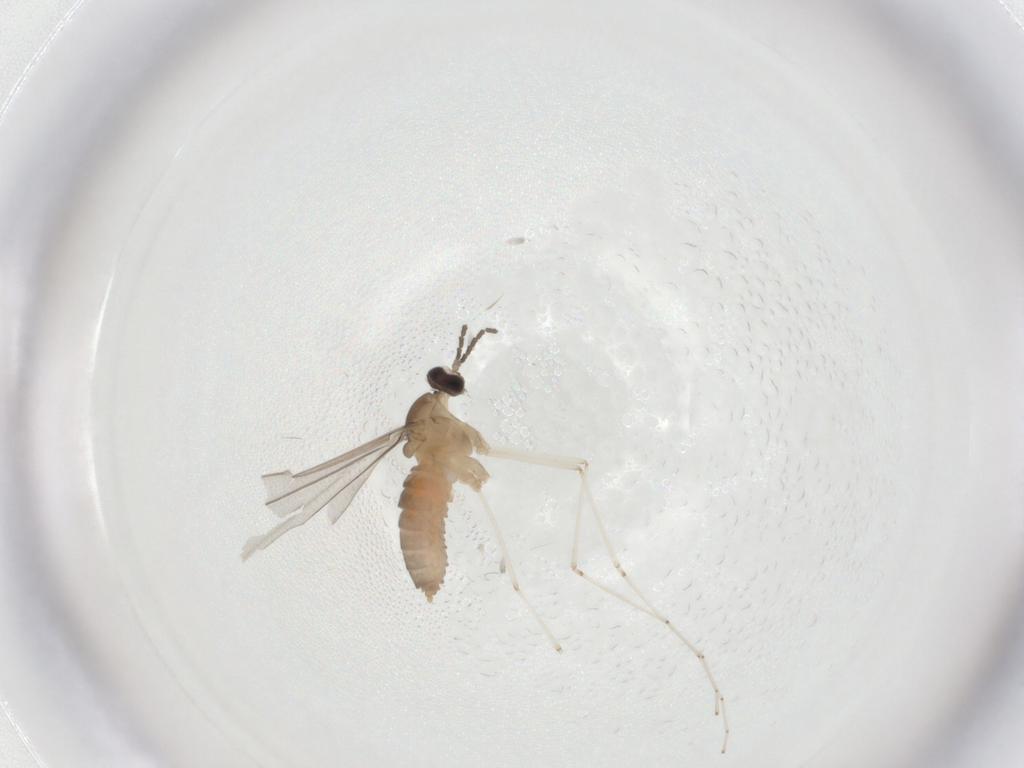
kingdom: Animalia
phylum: Arthropoda
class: Insecta
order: Diptera
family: Cecidomyiidae
